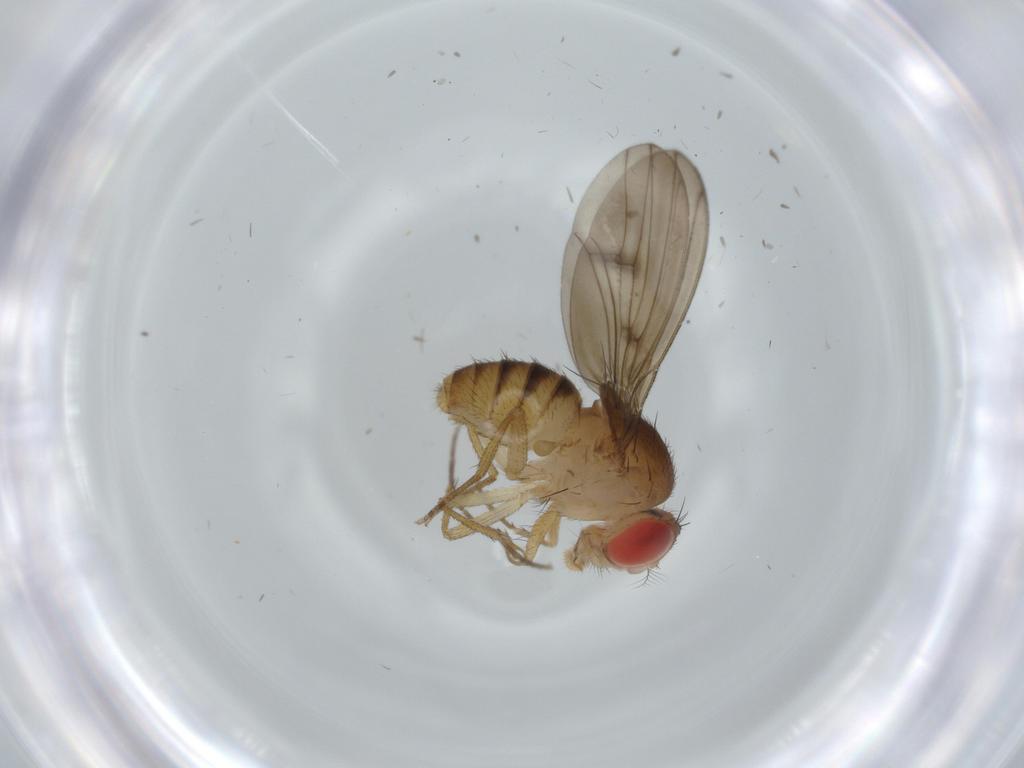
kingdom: Animalia
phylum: Arthropoda
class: Insecta
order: Diptera
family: Drosophilidae
